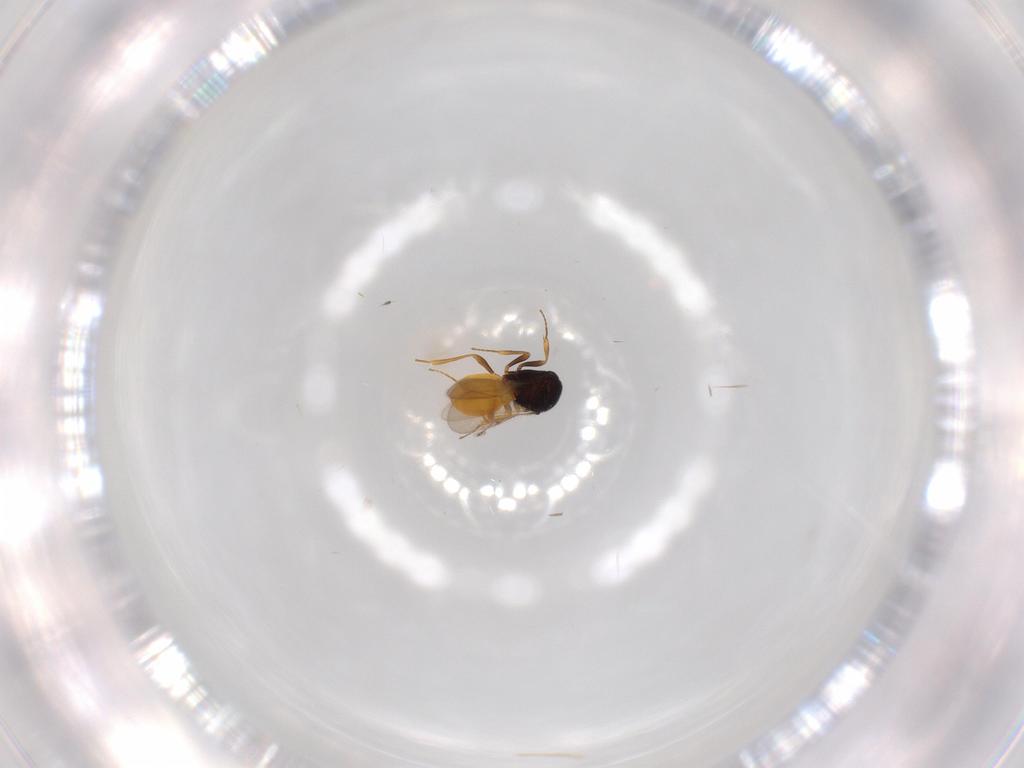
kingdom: Animalia
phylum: Arthropoda
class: Insecta
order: Hymenoptera
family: Scelionidae
